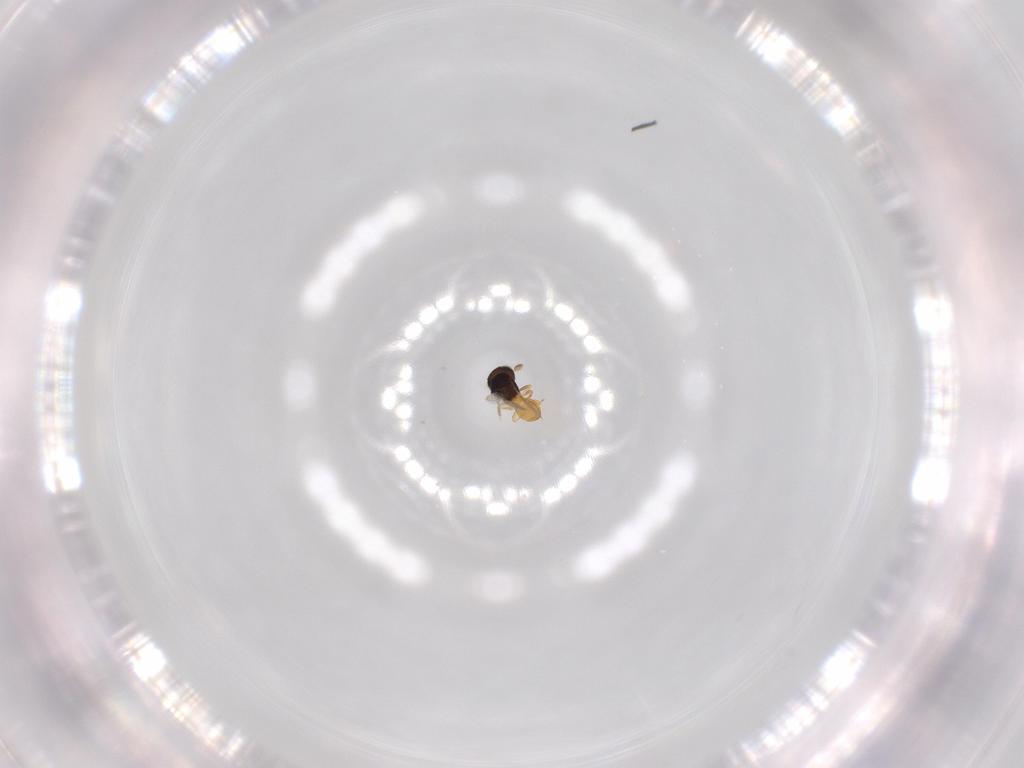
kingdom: Animalia
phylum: Arthropoda
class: Insecta
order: Hymenoptera
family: Scelionidae
